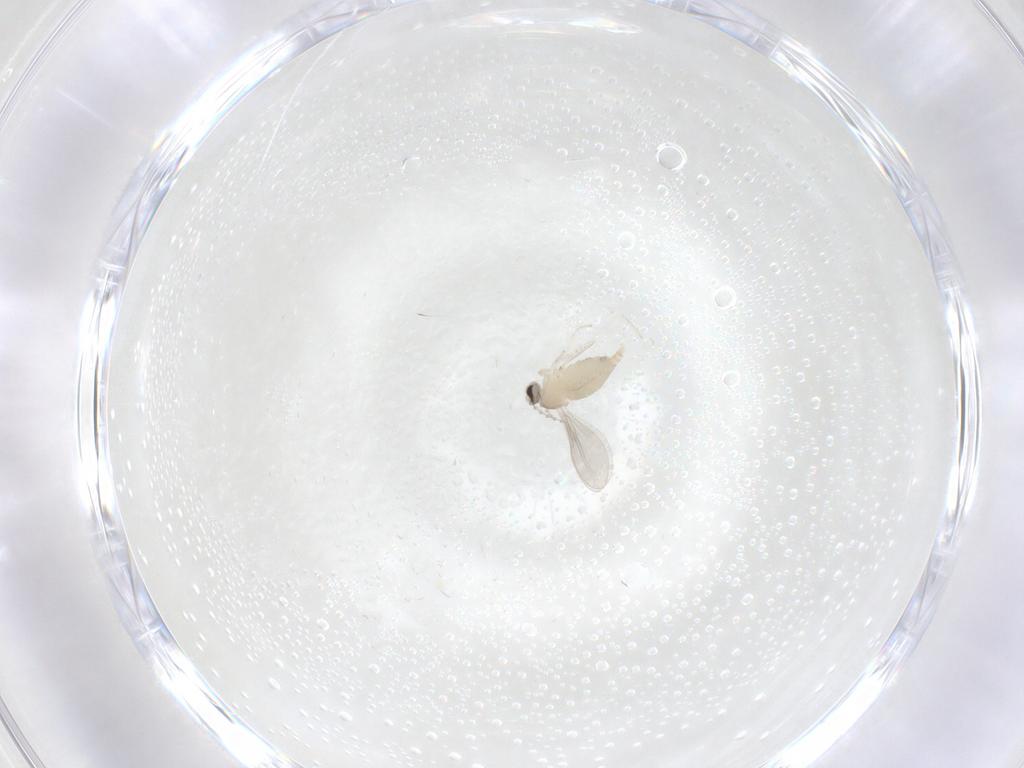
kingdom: Animalia
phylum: Arthropoda
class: Insecta
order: Diptera
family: Cecidomyiidae
